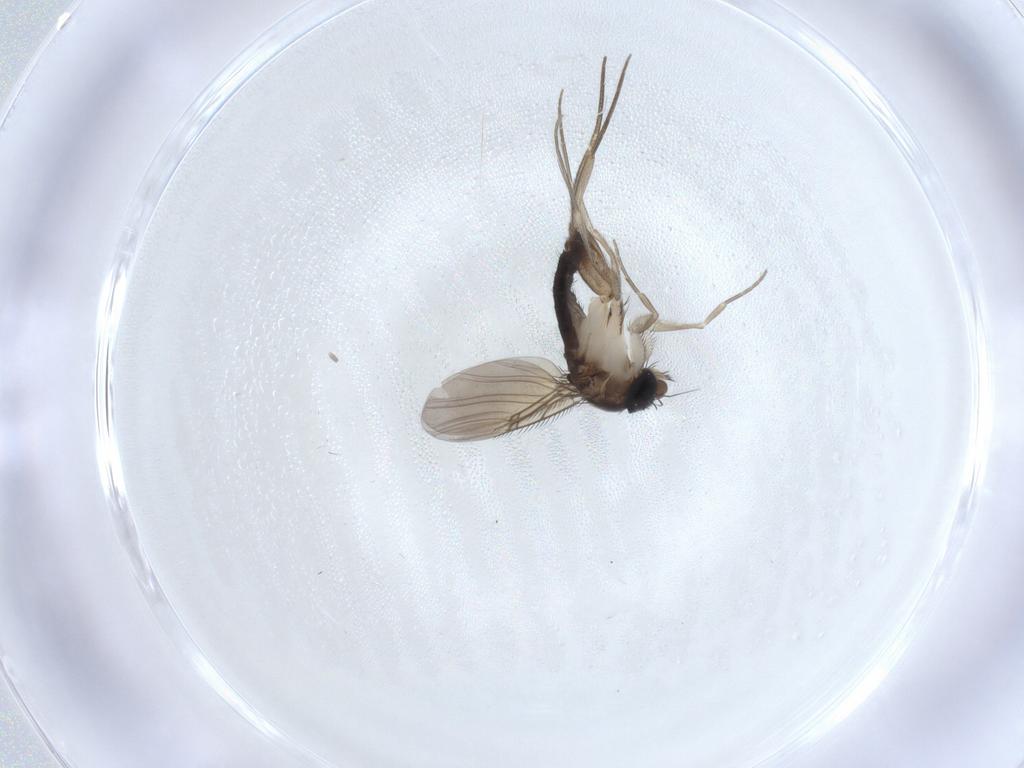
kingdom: Animalia
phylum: Arthropoda
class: Insecta
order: Diptera
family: Phoridae
